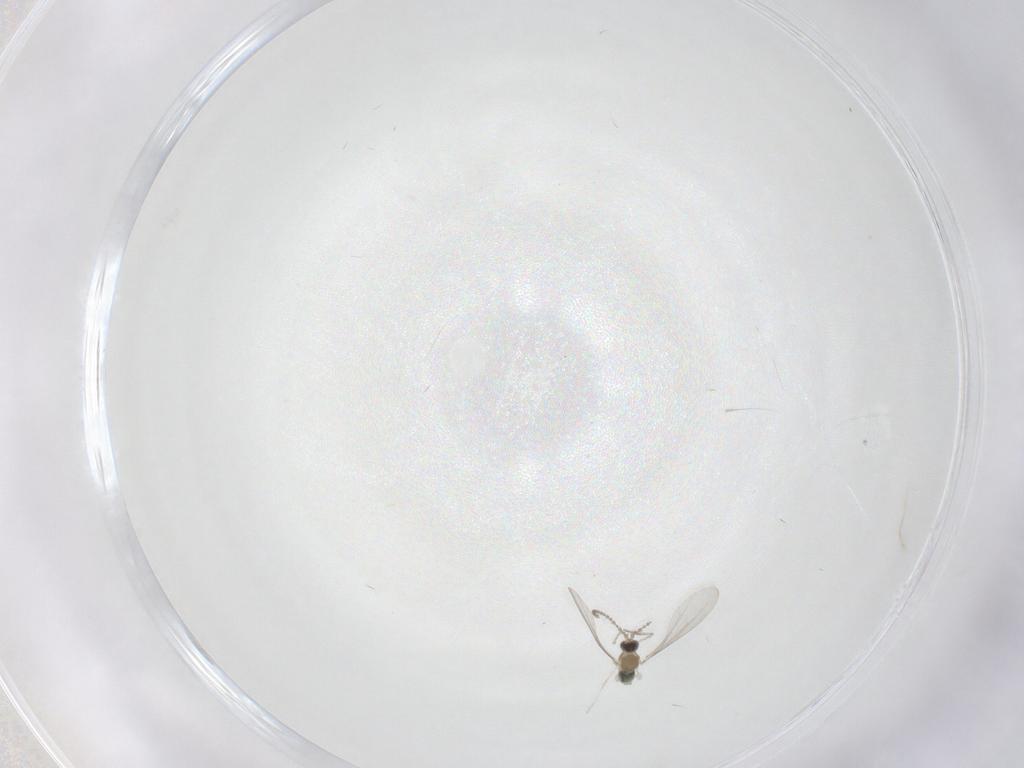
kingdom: Animalia
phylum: Arthropoda
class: Insecta
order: Diptera
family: Cecidomyiidae
